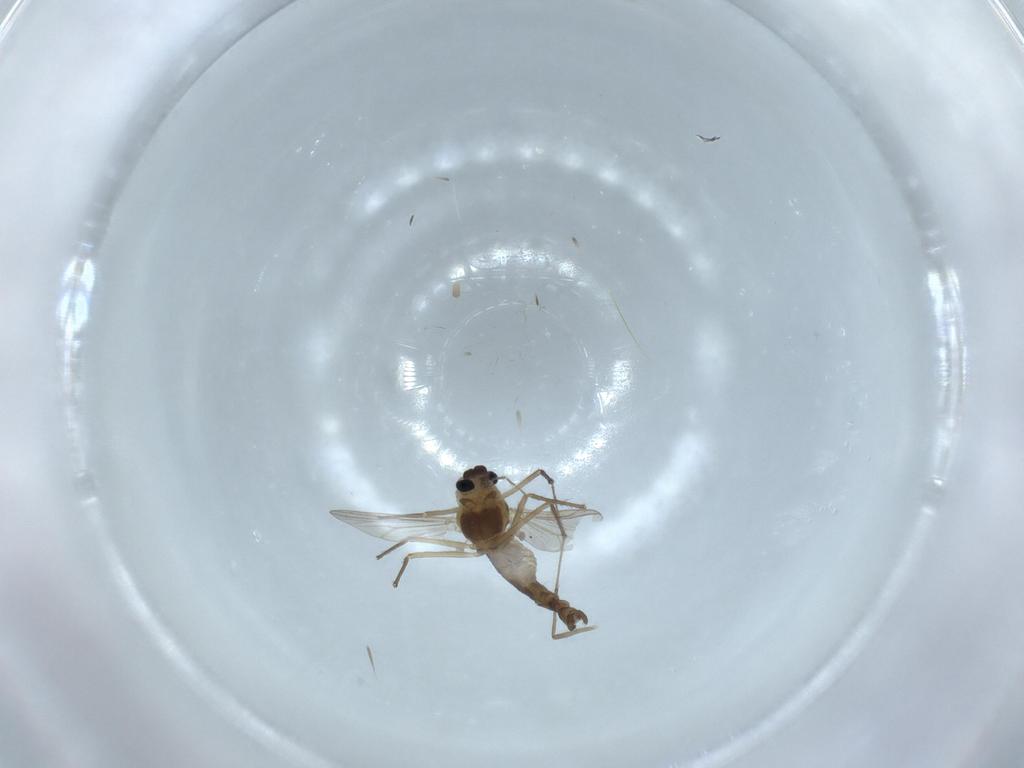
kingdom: Animalia
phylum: Arthropoda
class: Insecta
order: Diptera
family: Chironomidae
